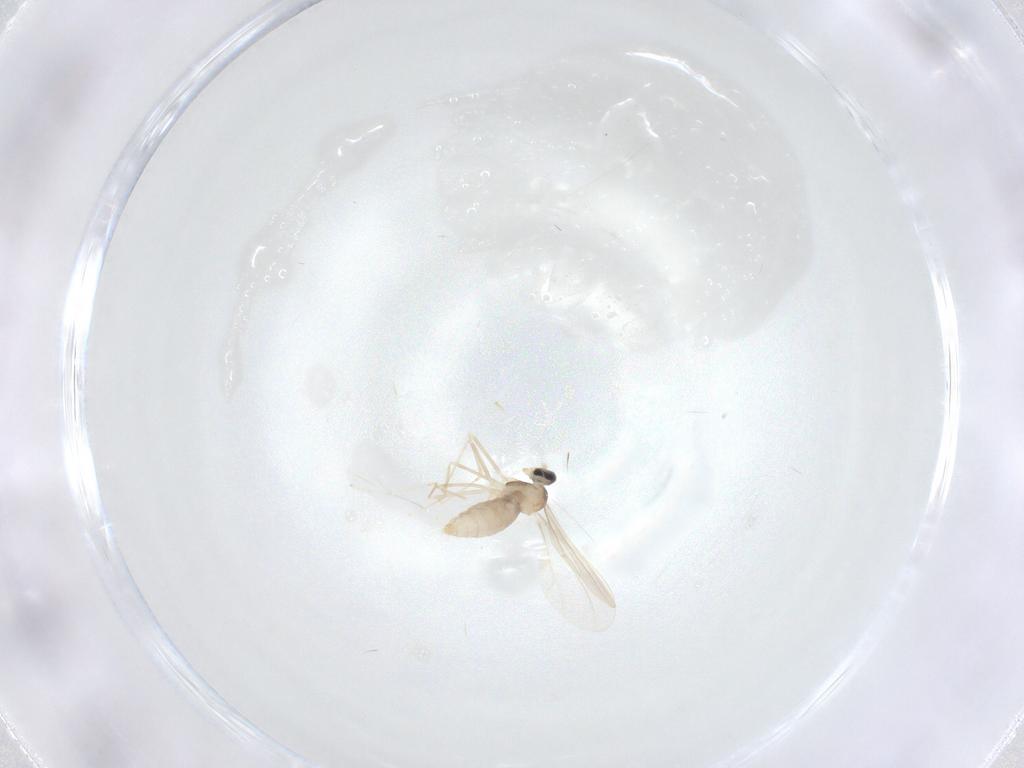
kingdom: Animalia
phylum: Arthropoda
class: Insecta
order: Diptera
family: Cecidomyiidae
